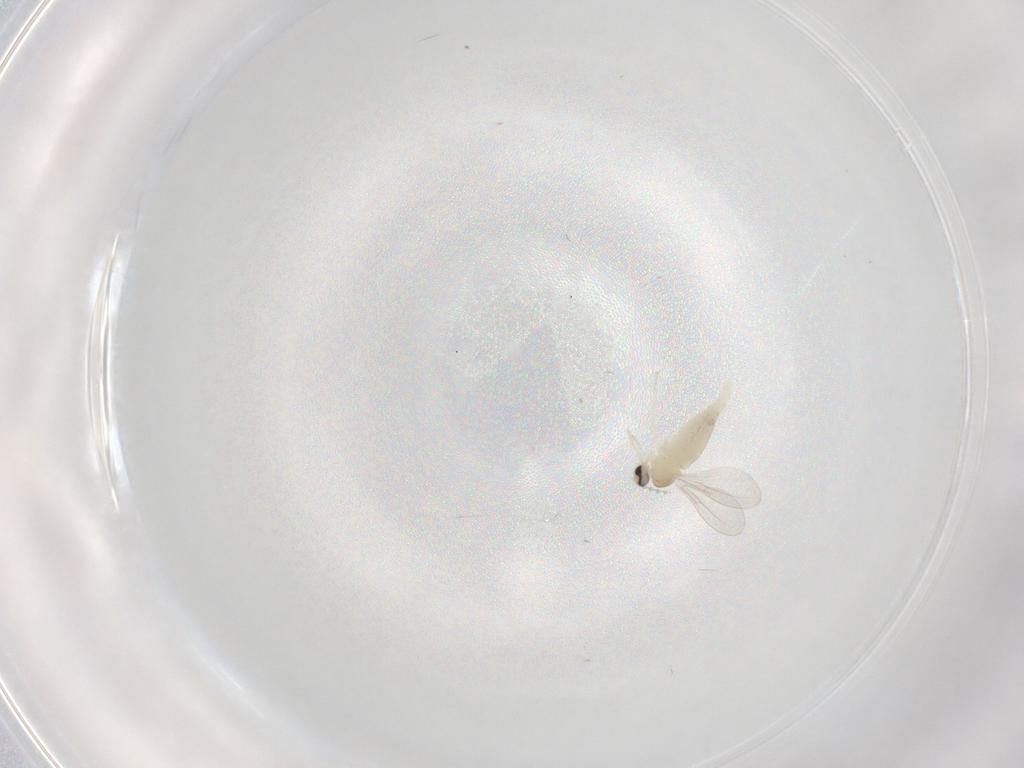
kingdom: Animalia
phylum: Arthropoda
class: Insecta
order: Diptera
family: Cecidomyiidae
